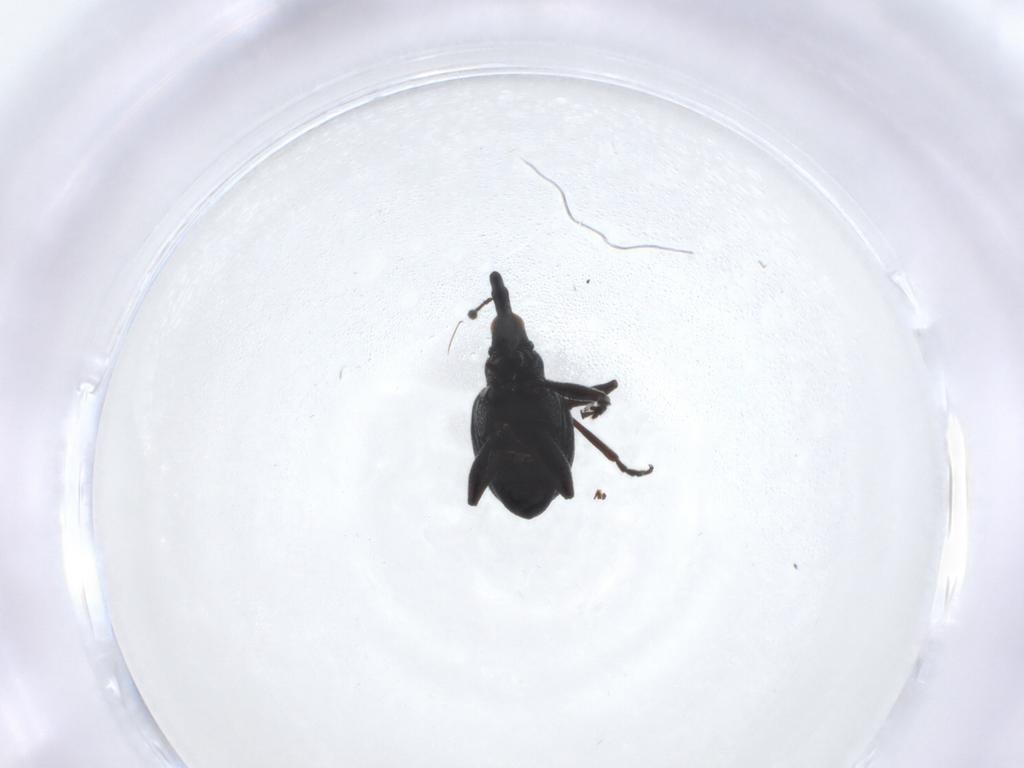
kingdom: Animalia
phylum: Arthropoda
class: Insecta
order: Coleoptera
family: Brentidae
